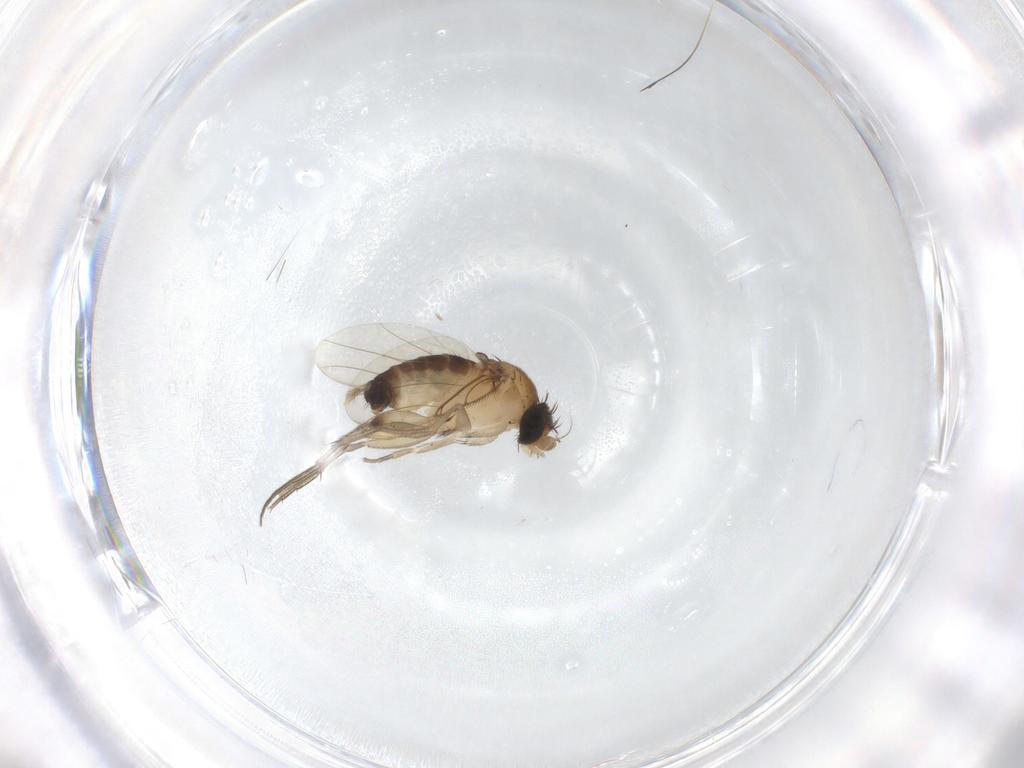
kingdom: Animalia
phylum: Arthropoda
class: Insecta
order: Diptera
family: Phoridae
